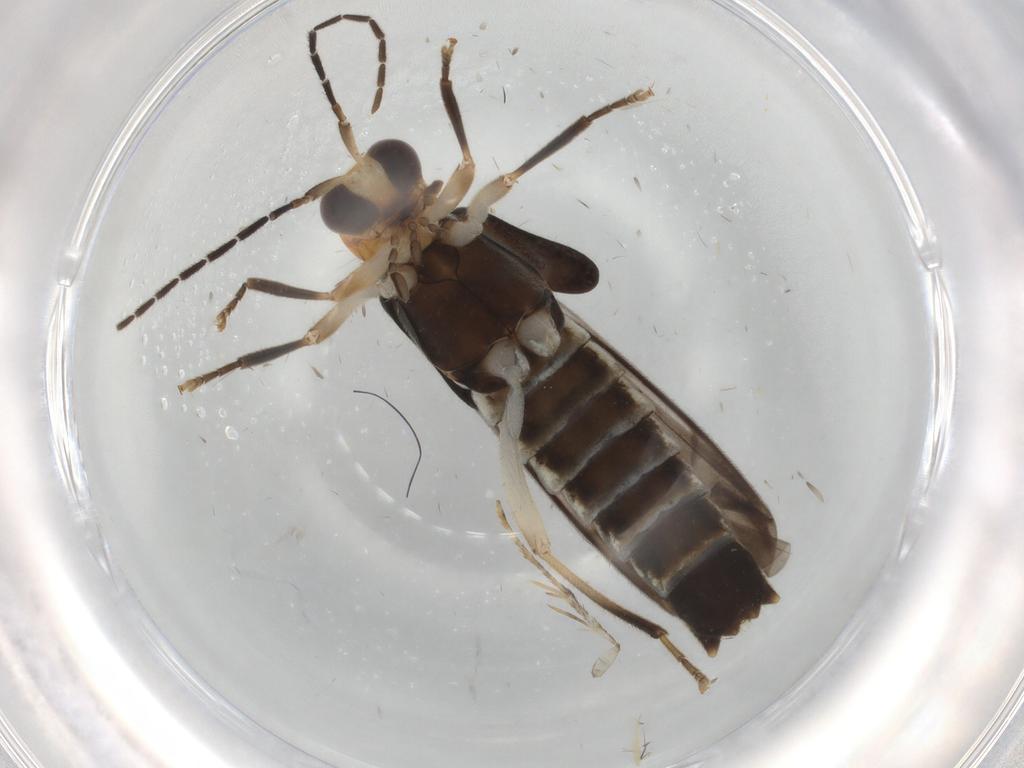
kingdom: Animalia
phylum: Arthropoda
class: Insecta
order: Coleoptera
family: Cantharidae
